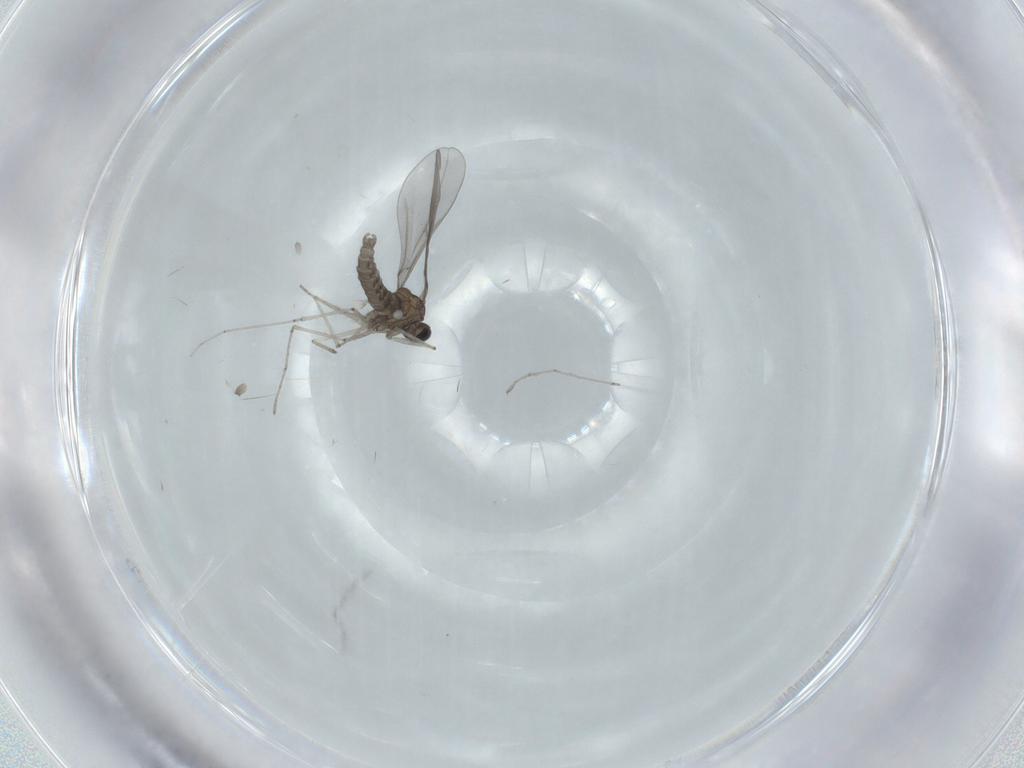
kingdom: Animalia
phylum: Arthropoda
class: Insecta
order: Diptera
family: Cecidomyiidae
